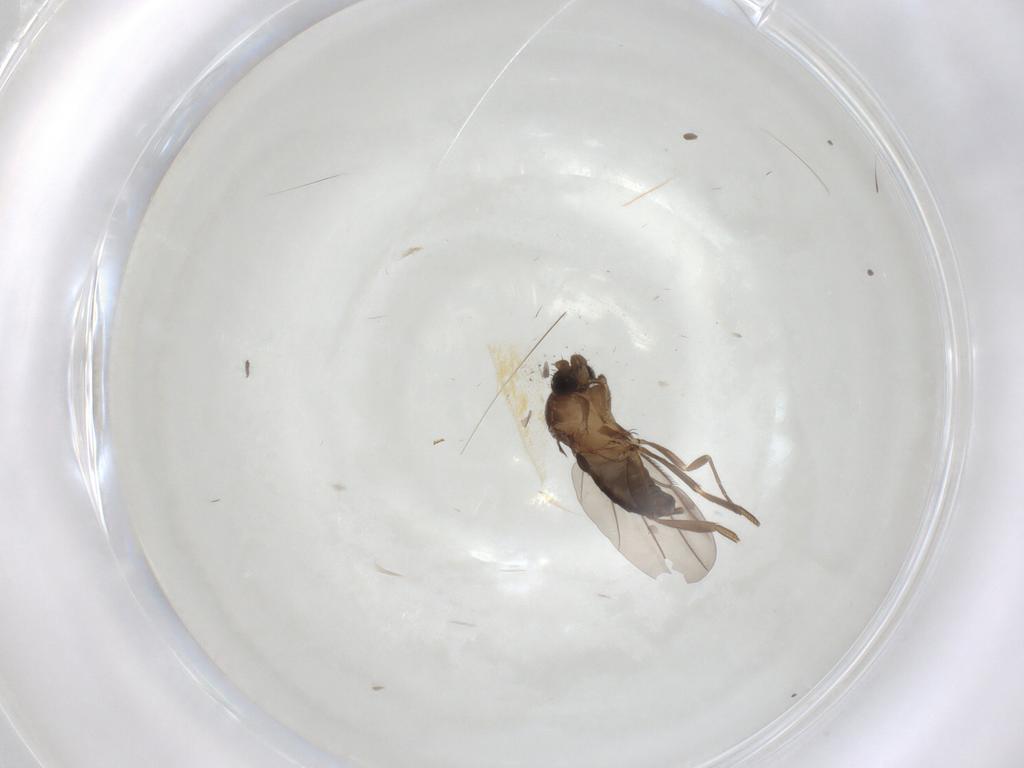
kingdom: Animalia
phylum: Arthropoda
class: Insecta
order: Diptera
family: Phoridae
